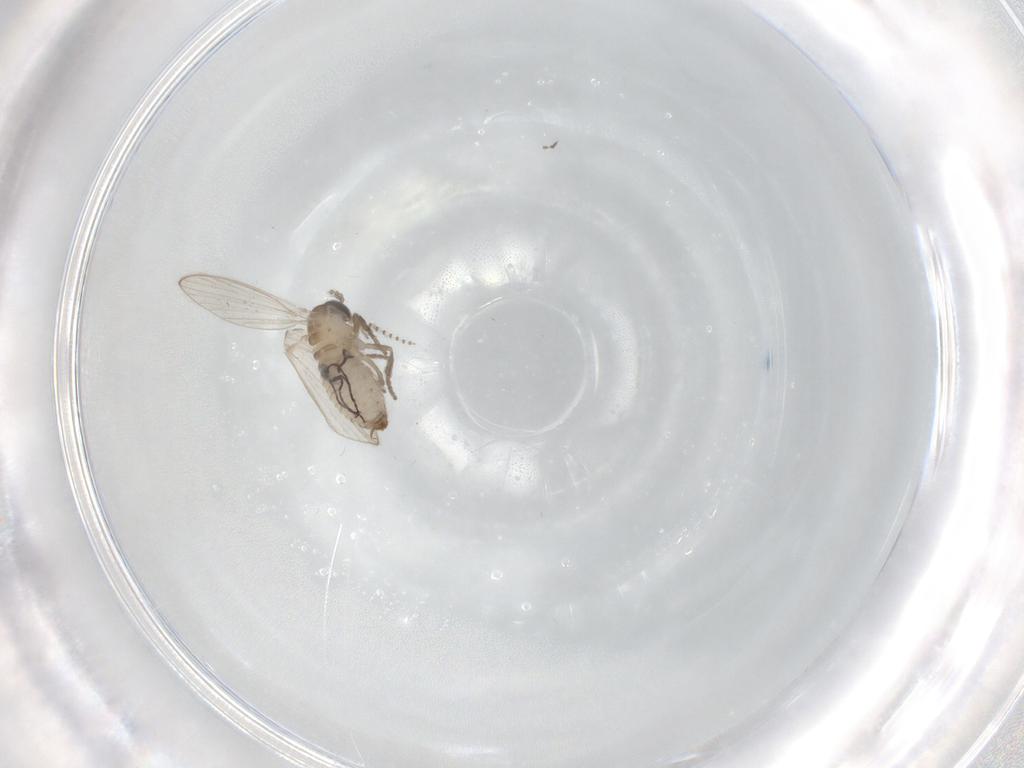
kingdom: Animalia
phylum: Arthropoda
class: Insecta
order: Diptera
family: Psychodidae
